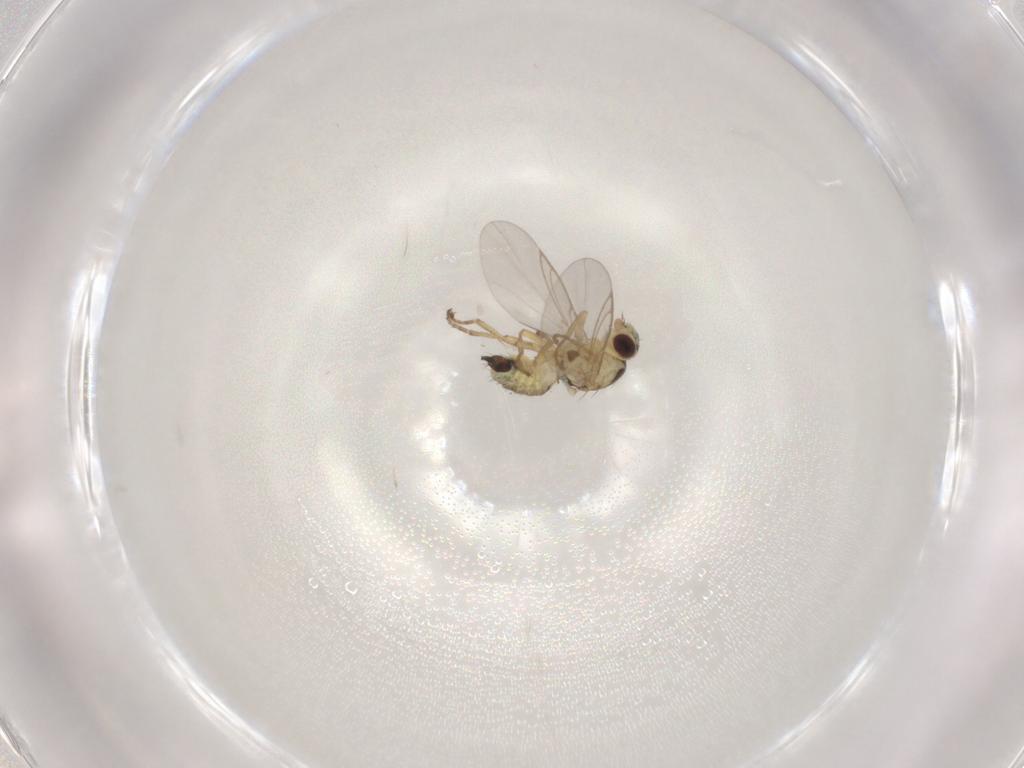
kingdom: Animalia
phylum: Arthropoda
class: Insecta
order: Diptera
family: Agromyzidae
